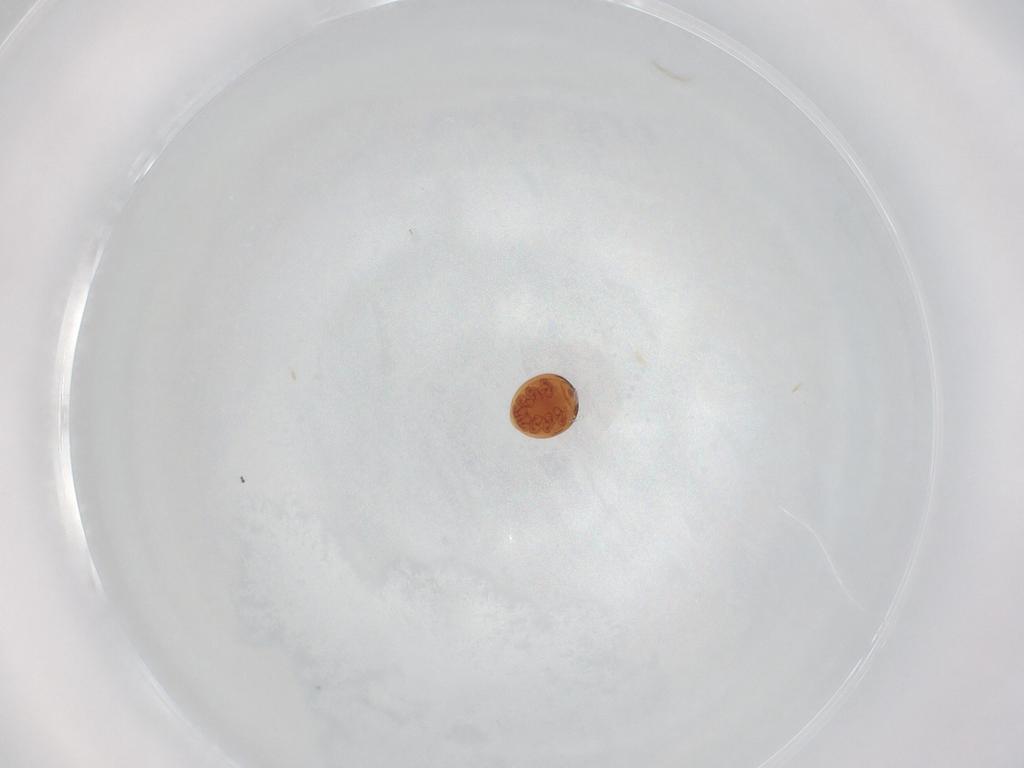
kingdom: Animalia
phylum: Arthropoda
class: Arachnida
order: Mesostigmata
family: Uropodidae
